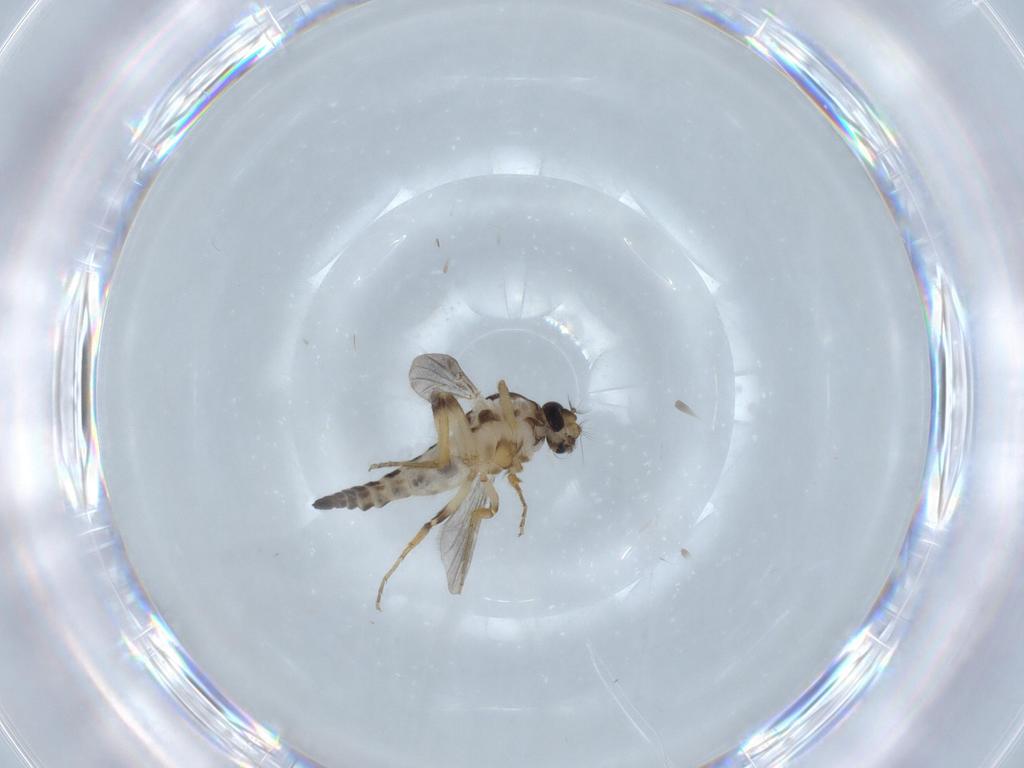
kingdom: Animalia
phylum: Arthropoda
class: Insecta
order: Diptera
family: Ceratopogonidae
